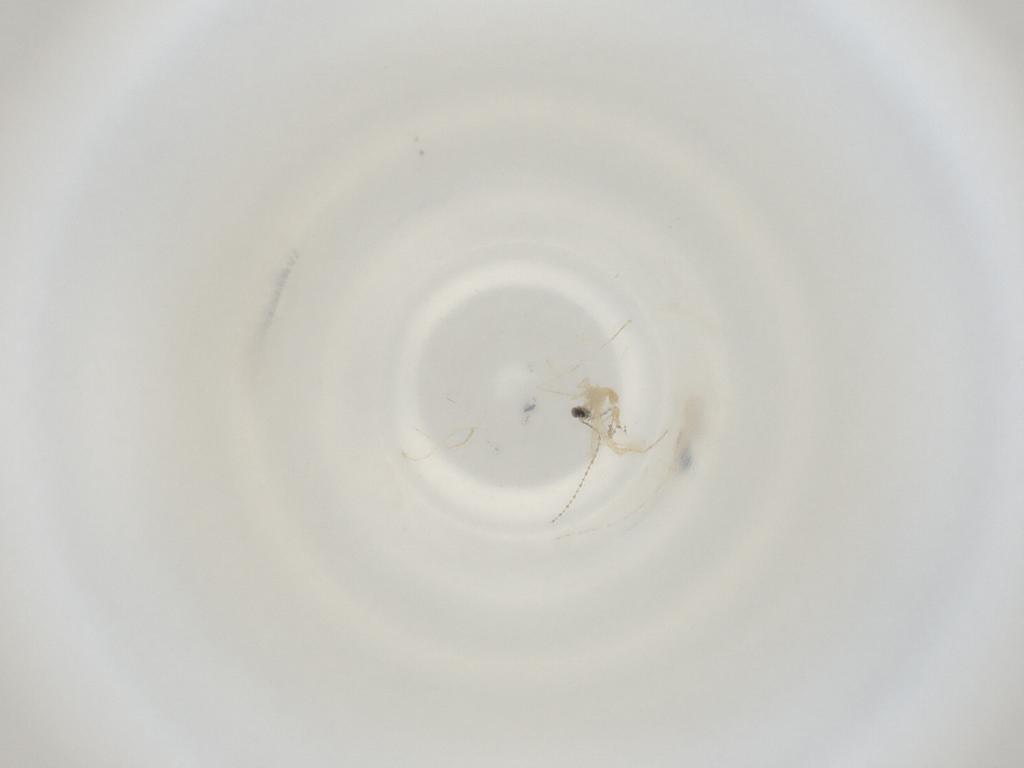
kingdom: Animalia
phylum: Arthropoda
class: Insecta
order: Diptera
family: Cecidomyiidae
